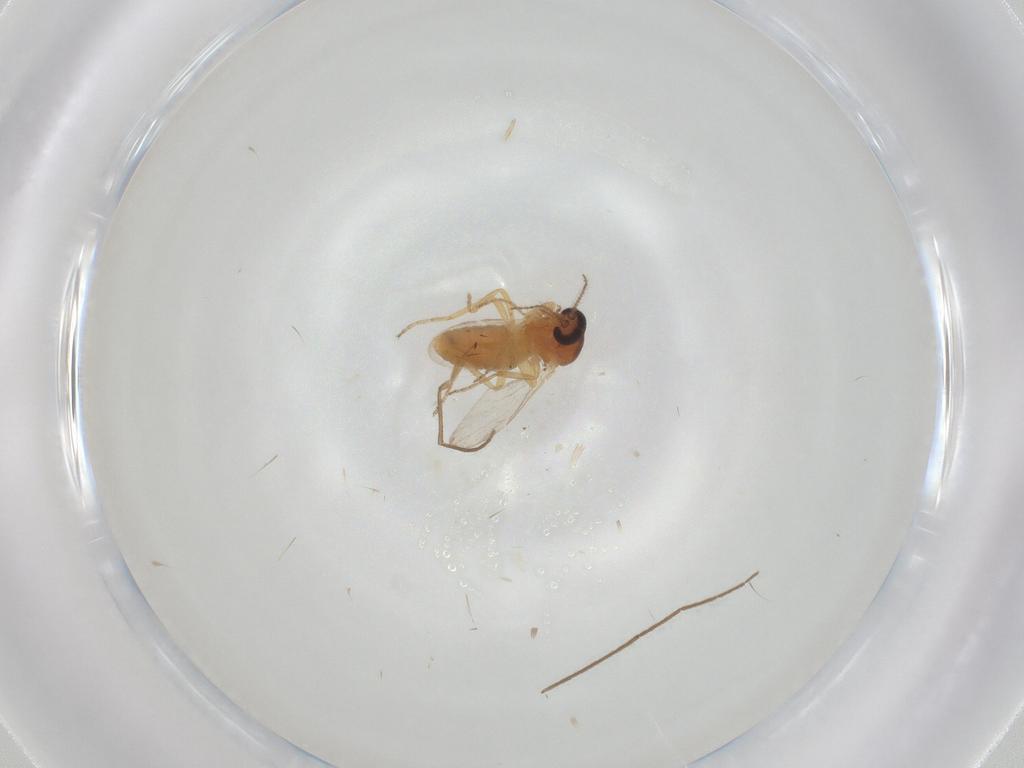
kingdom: Animalia
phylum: Arthropoda
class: Insecta
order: Diptera
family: Ceratopogonidae
